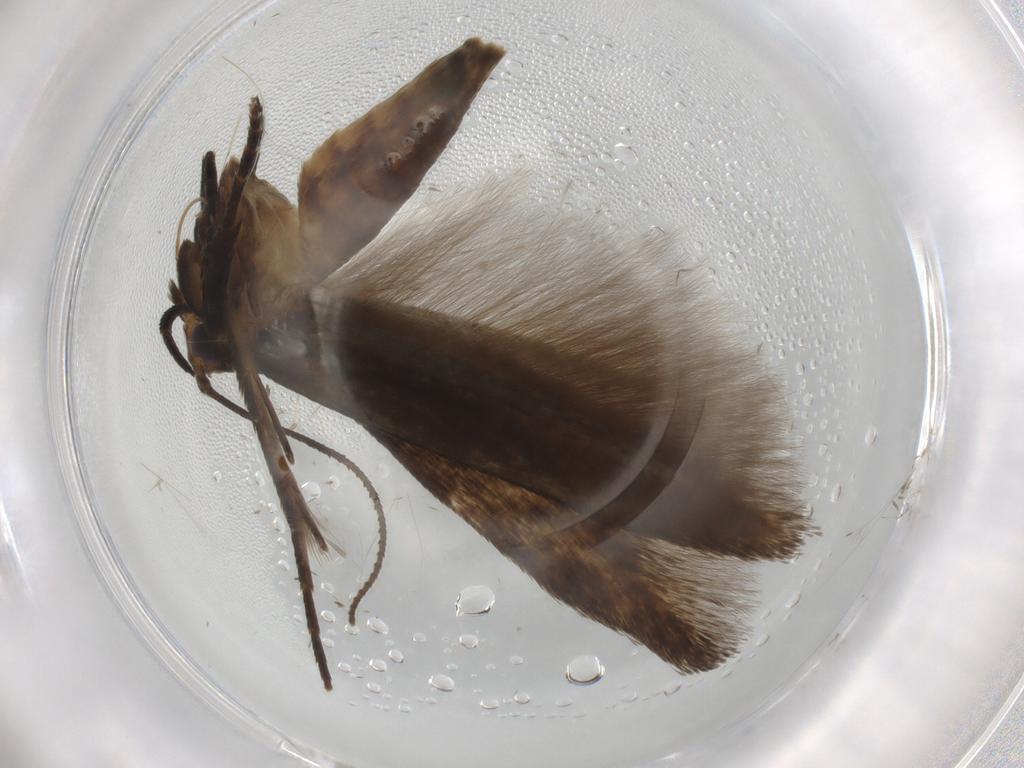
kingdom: Animalia
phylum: Arthropoda
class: Insecta
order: Lepidoptera
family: Cosmopterigidae
